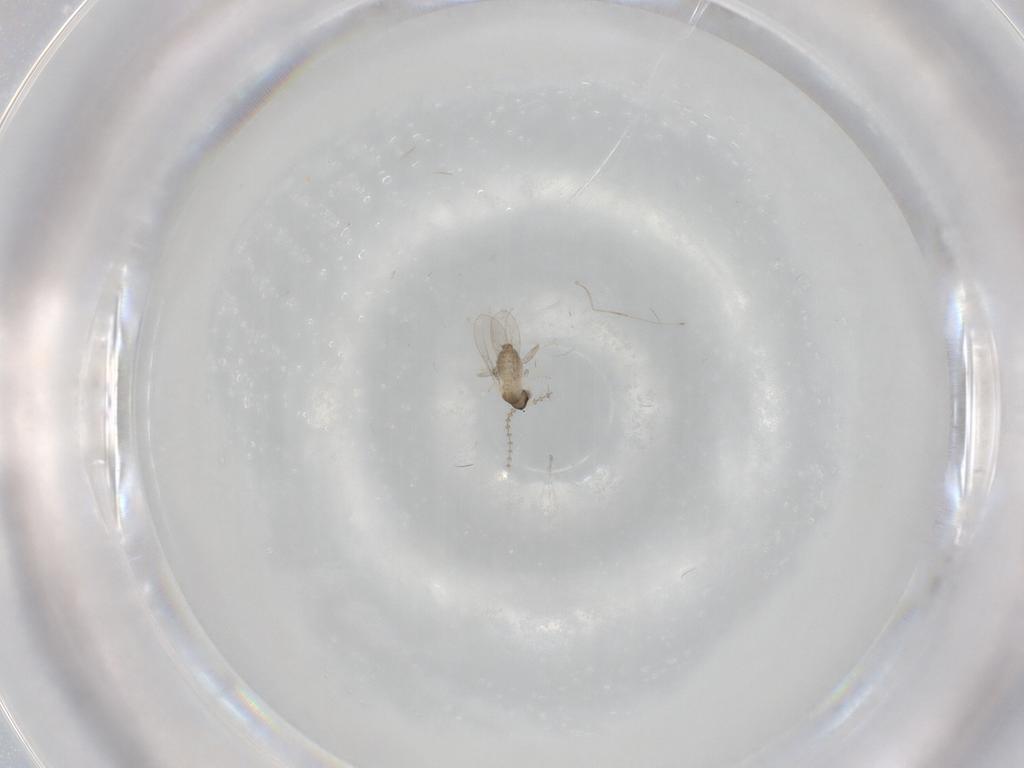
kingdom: Animalia
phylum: Arthropoda
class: Insecta
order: Diptera
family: Cecidomyiidae
